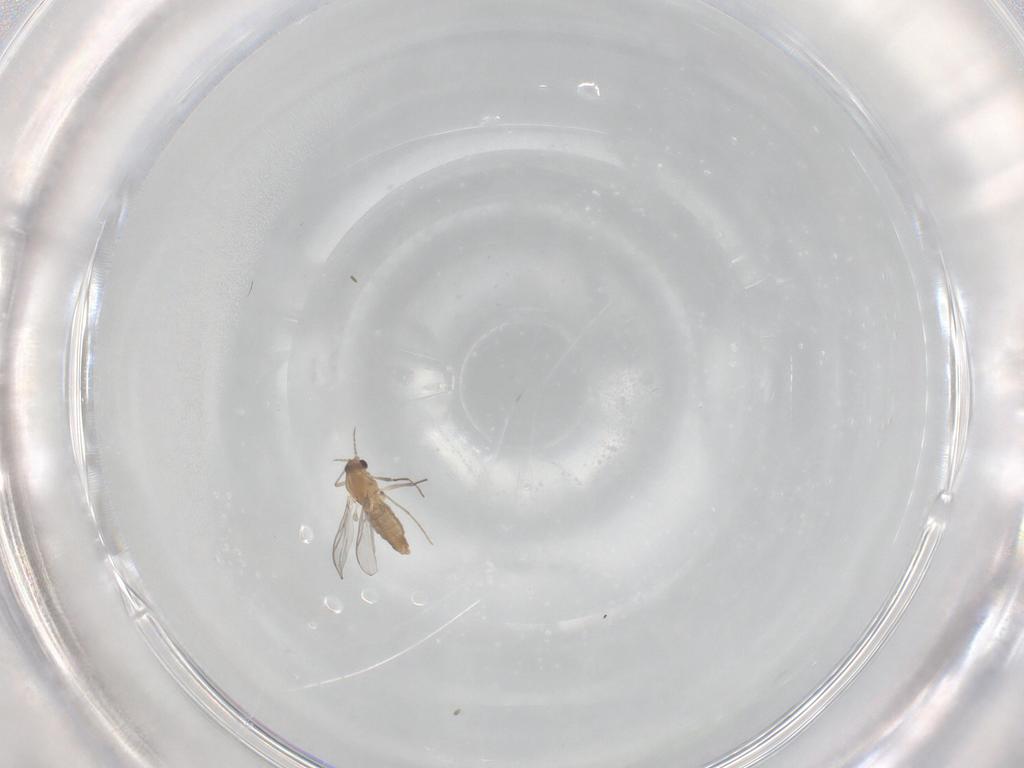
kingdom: Animalia
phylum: Arthropoda
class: Insecta
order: Diptera
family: Chironomidae
